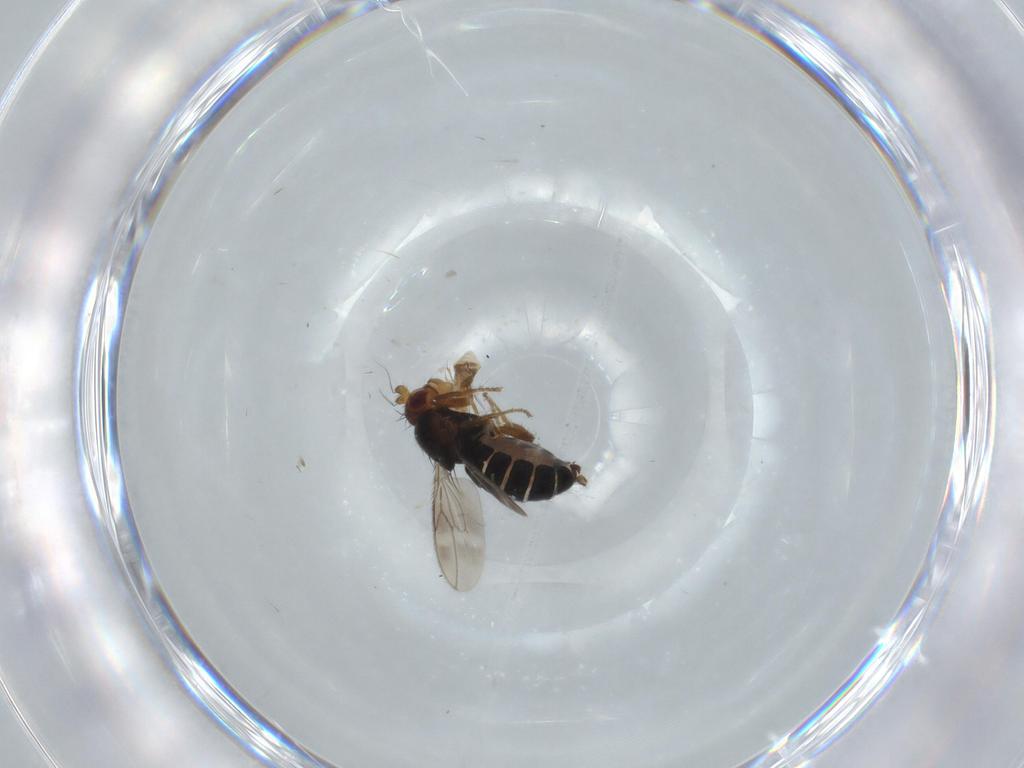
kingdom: Animalia
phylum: Arthropoda
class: Insecta
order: Diptera
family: Sphaeroceridae
